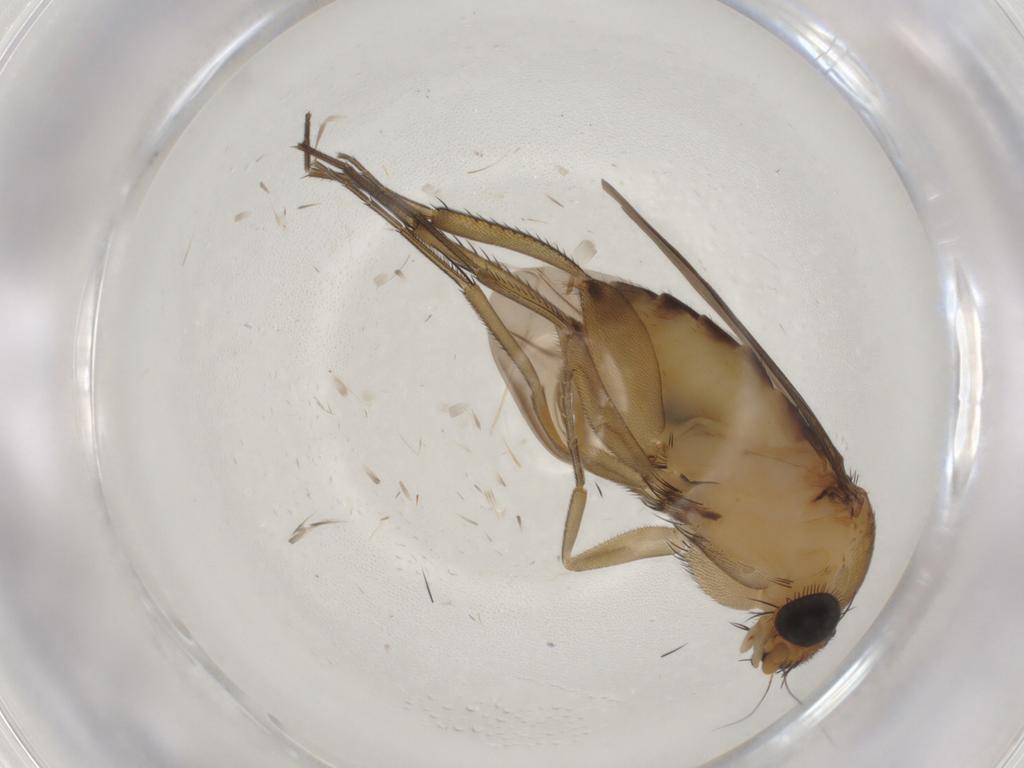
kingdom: Animalia
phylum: Arthropoda
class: Insecta
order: Diptera
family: Phoridae
